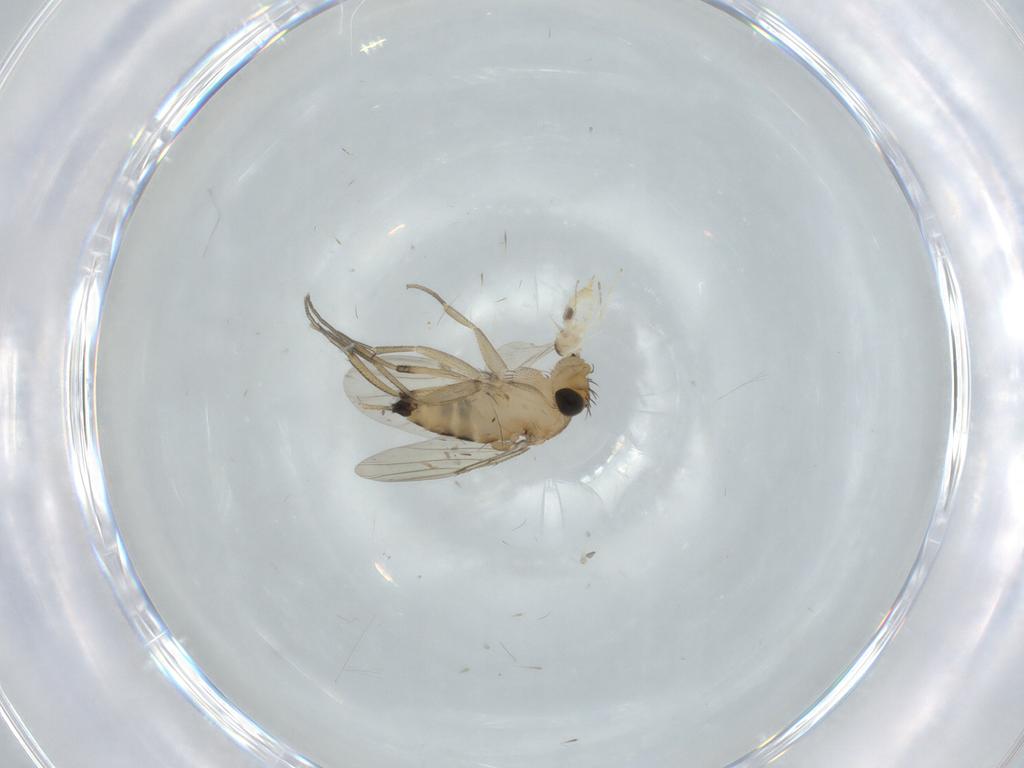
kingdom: Animalia
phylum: Arthropoda
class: Insecta
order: Diptera
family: Phoridae
